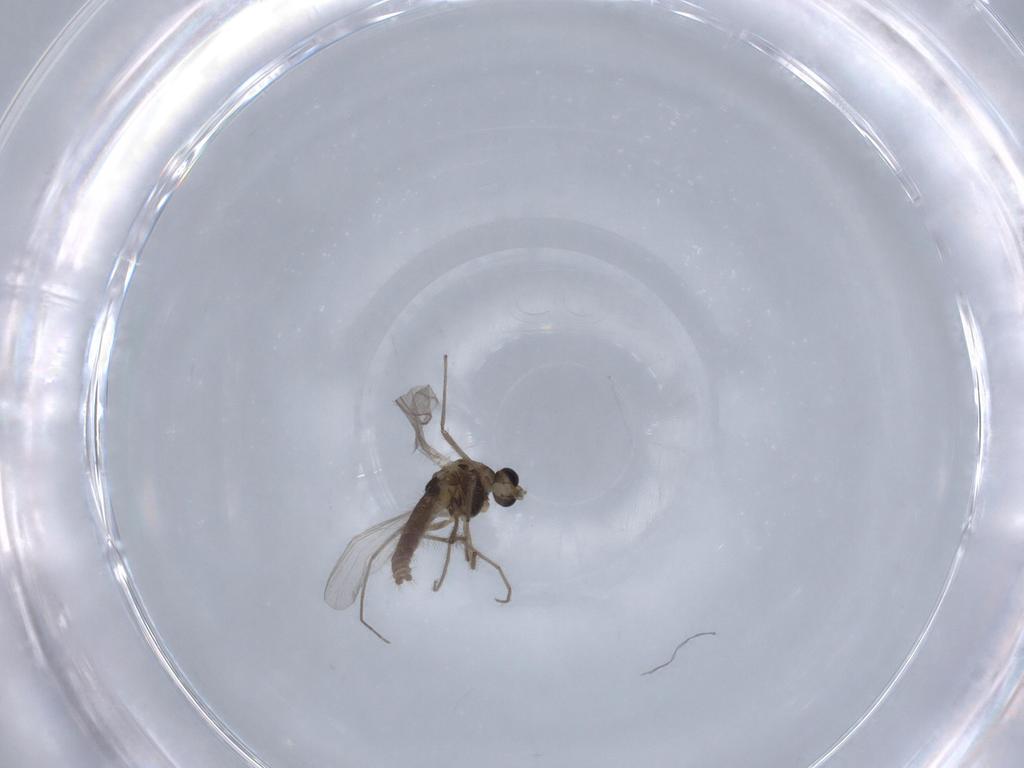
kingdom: Animalia
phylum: Arthropoda
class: Insecta
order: Diptera
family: Chironomidae
